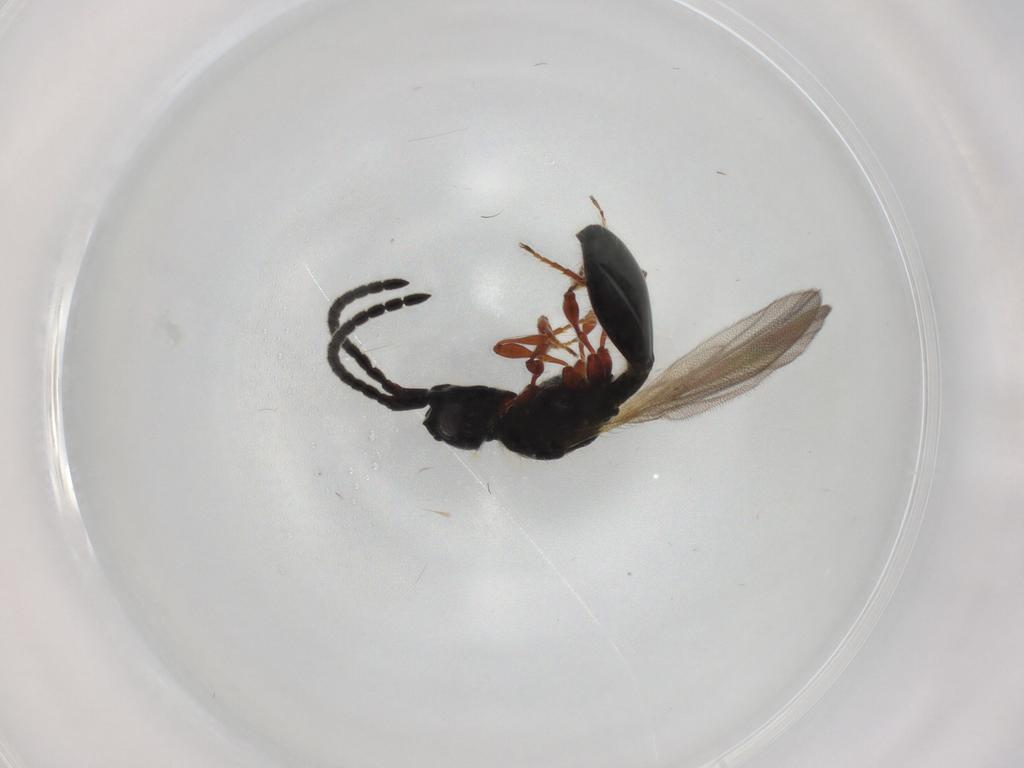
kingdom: Animalia
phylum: Arthropoda
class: Insecta
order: Hymenoptera
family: Diapriidae
